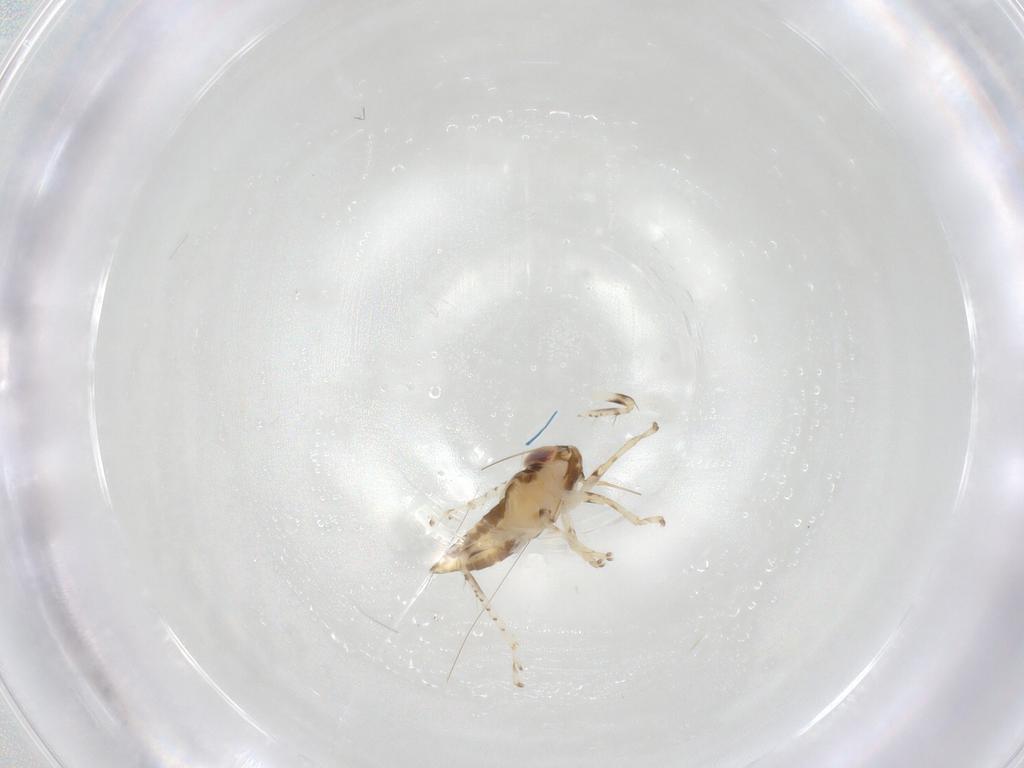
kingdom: Animalia
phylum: Arthropoda
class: Insecta
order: Hemiptera
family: Cicadellidae
